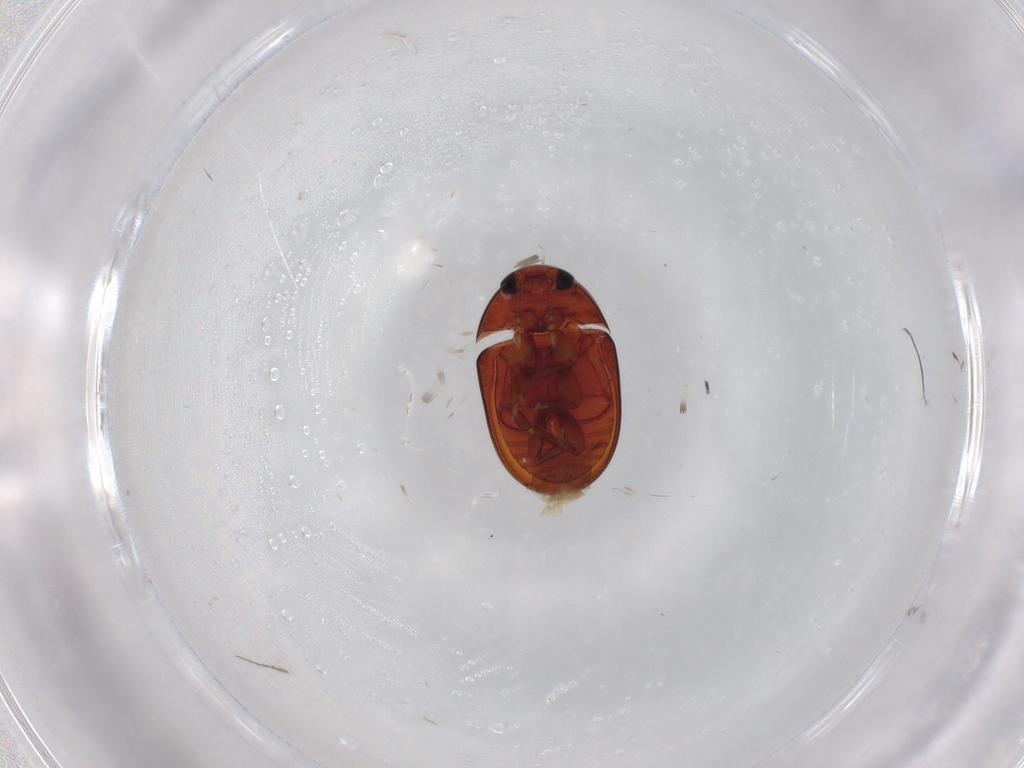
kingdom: Animalia
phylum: Arthropoda
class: Insecta
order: Coleoptera
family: Phalacridae
